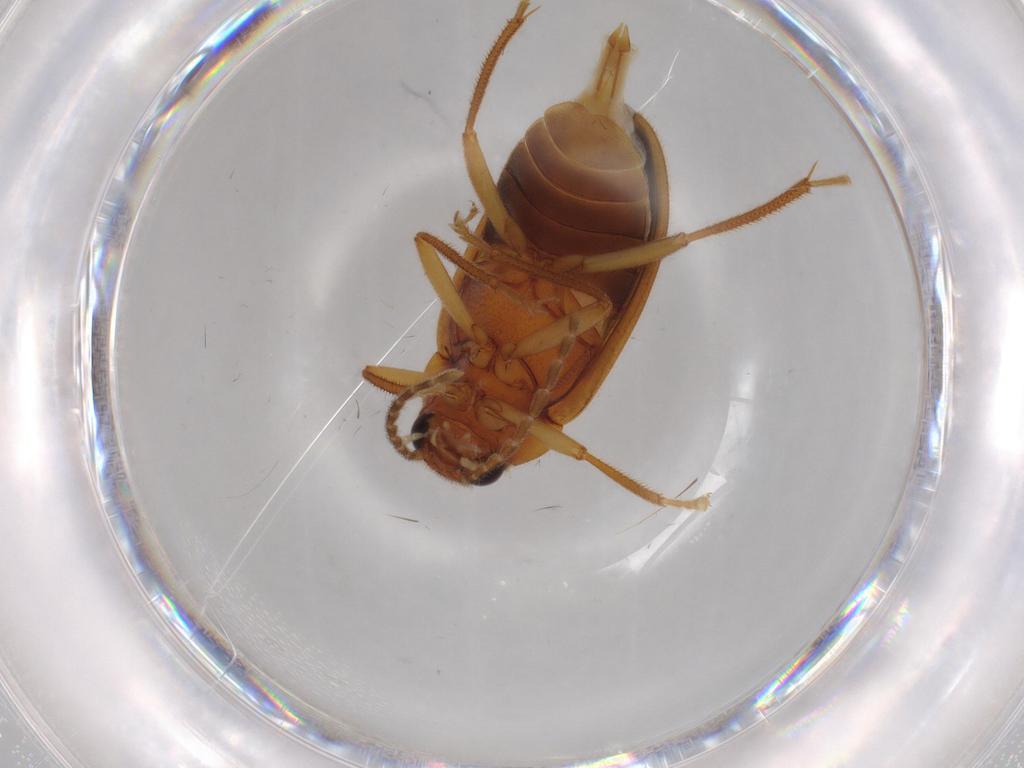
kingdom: Animalia
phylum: Arthropoda
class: Insecta
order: Coleoptera
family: Ptilodactylidae
